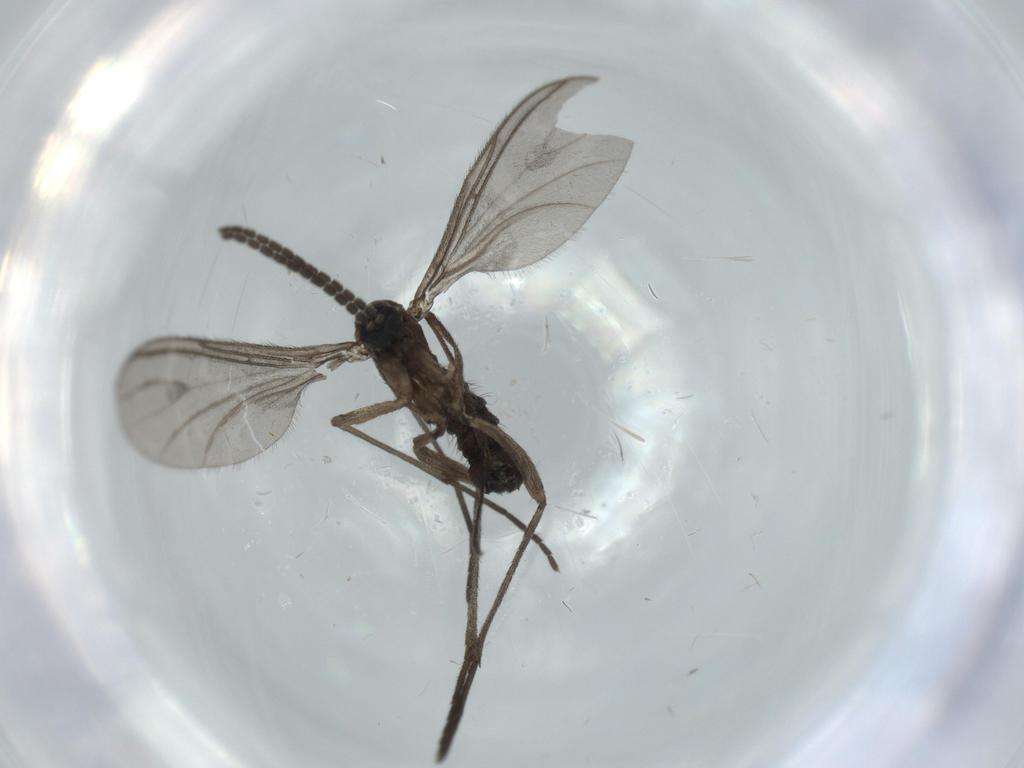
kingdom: Animalia
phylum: Arthropoda
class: Insecta
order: Diptera
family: Sciaridae
